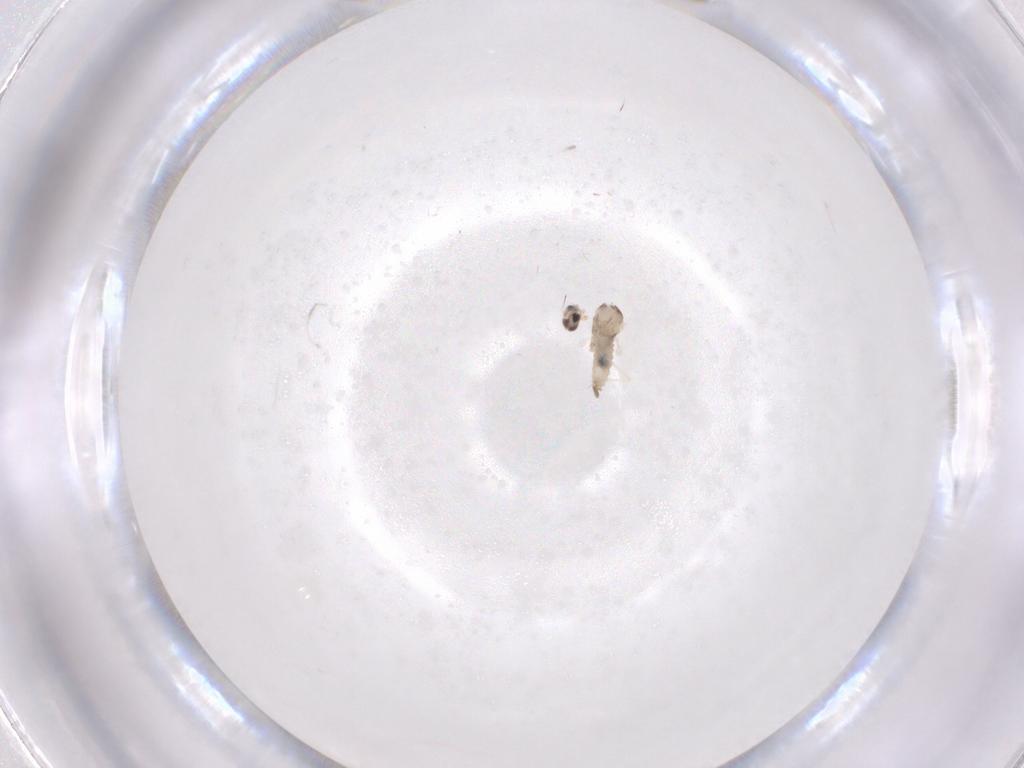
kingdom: Animalia
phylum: Arthropoda
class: Insecta
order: Diptera
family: Cecidomyiidae
